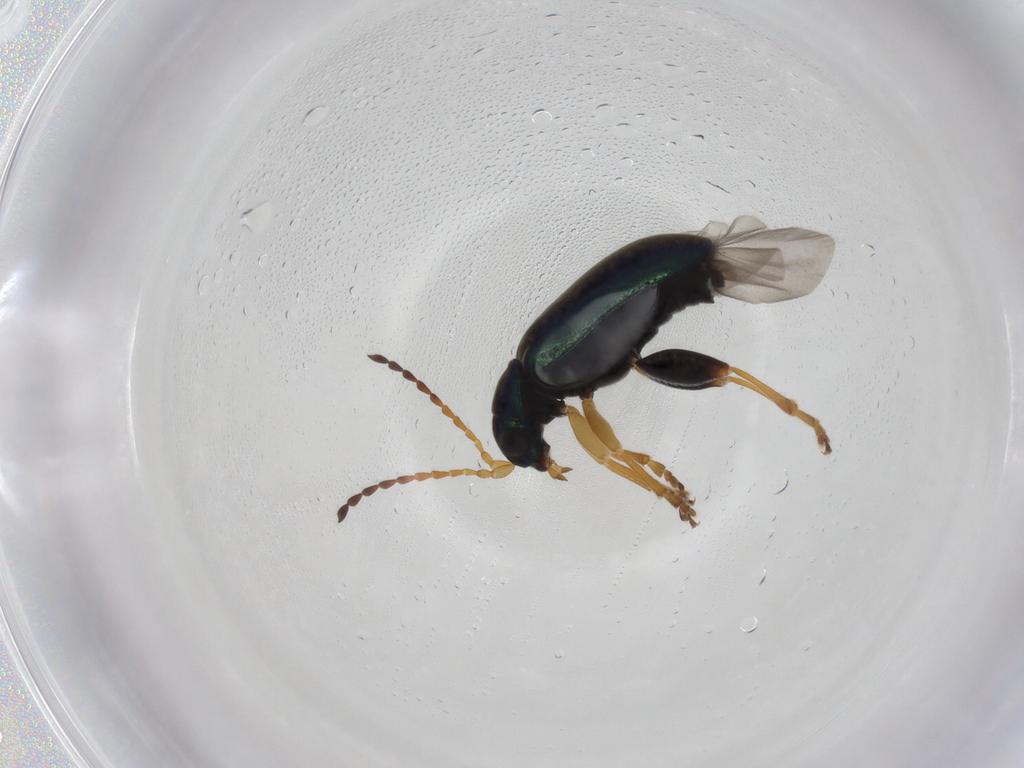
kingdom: Animalia
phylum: Arthropoda
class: Insecta
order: Coleoptera
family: Chrysomelidae
